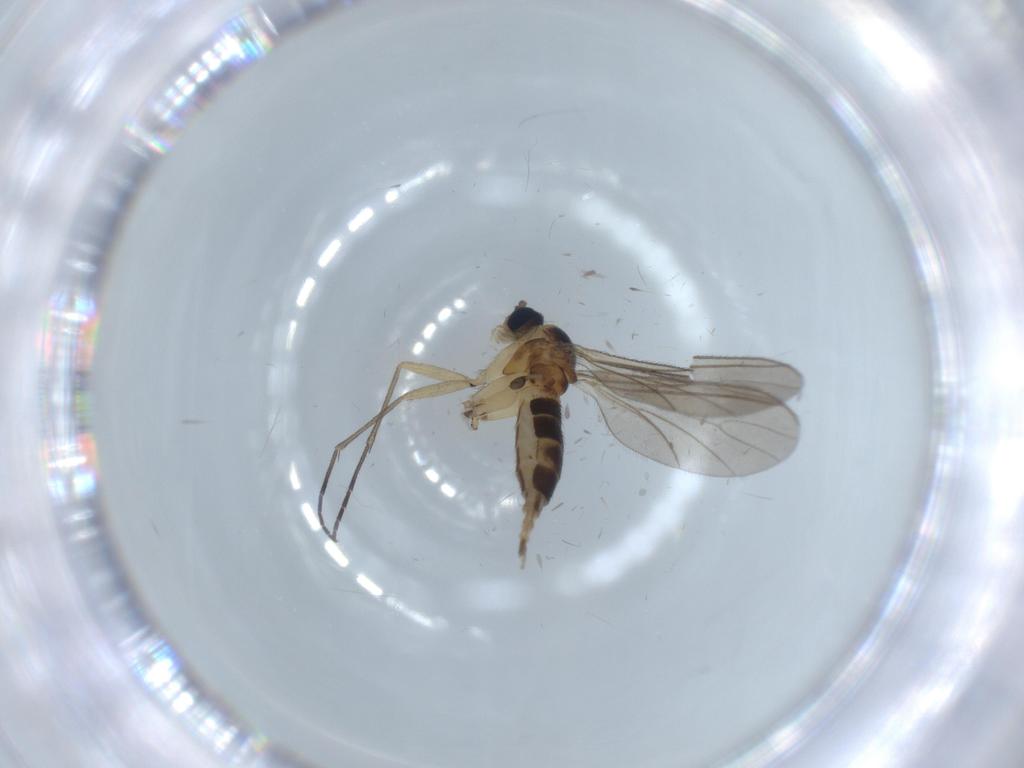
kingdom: Animalia
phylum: Arthropoda
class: Insecta
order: Diptera
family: Sciaridae
